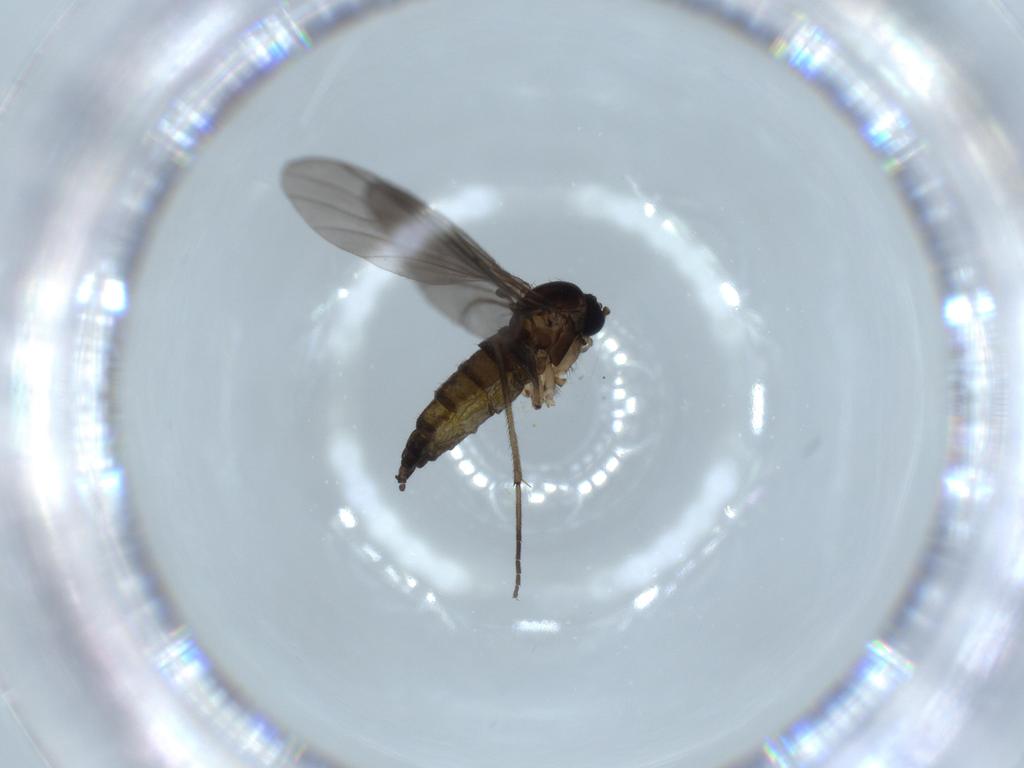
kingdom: Animalia
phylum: Arthropoda
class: Insecta
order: Diptera
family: Sciaridae
